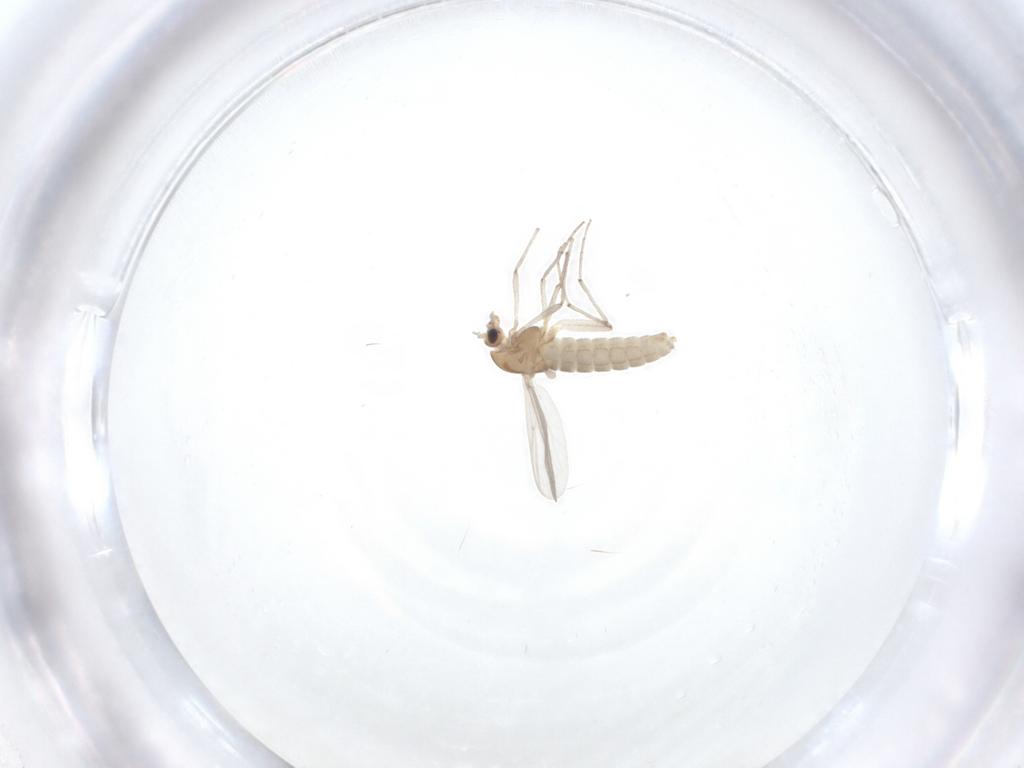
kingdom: Animalia
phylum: Arthropoda
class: Insecta
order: Diptera
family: Chironomidae
